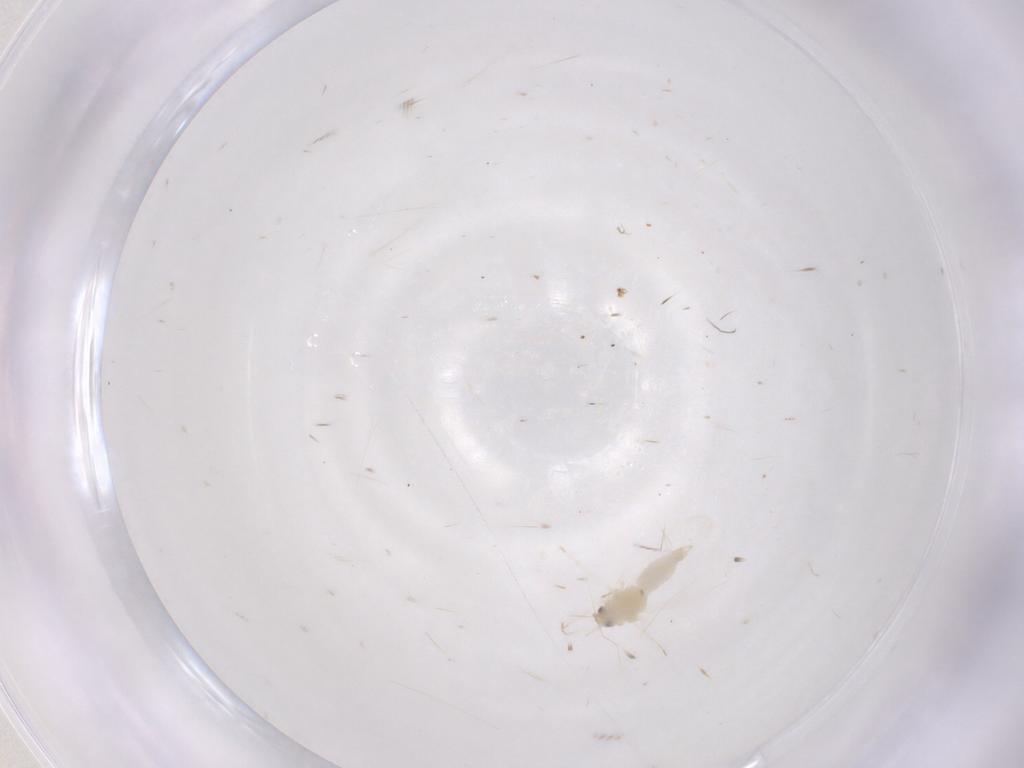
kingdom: Animalia
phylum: Arthropoda
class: Insecta
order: Hemiptera
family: Aleyrodidae
